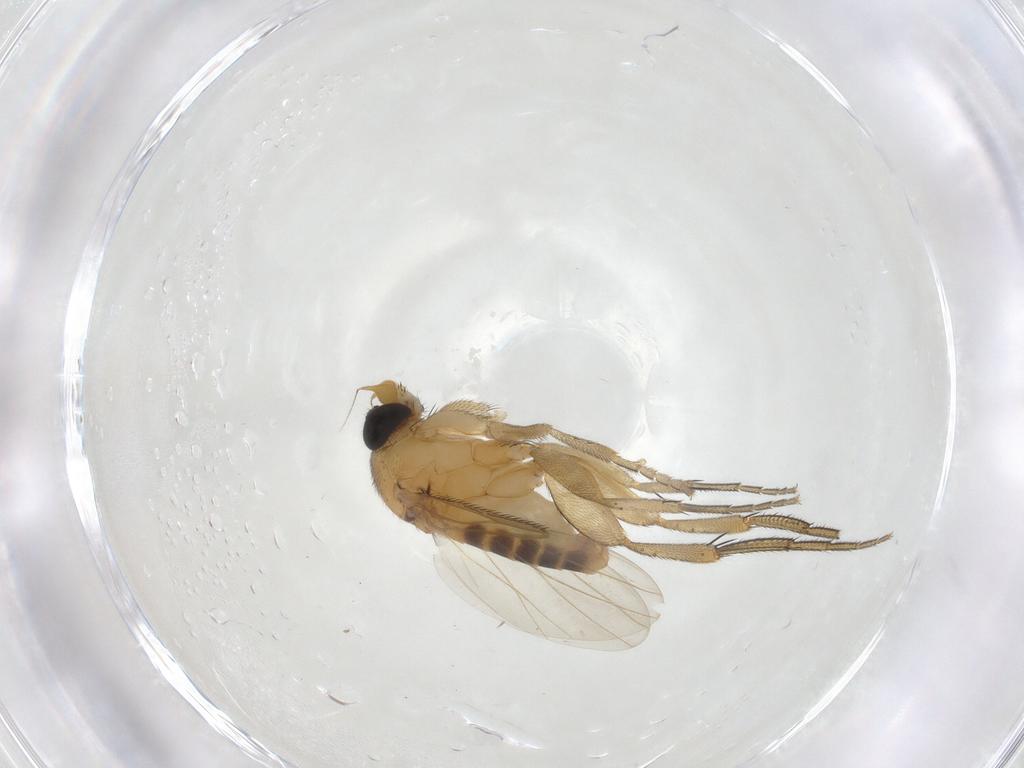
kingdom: Animalia
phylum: Arthropoda
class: Insecta
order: Diptera
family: Phoridae
